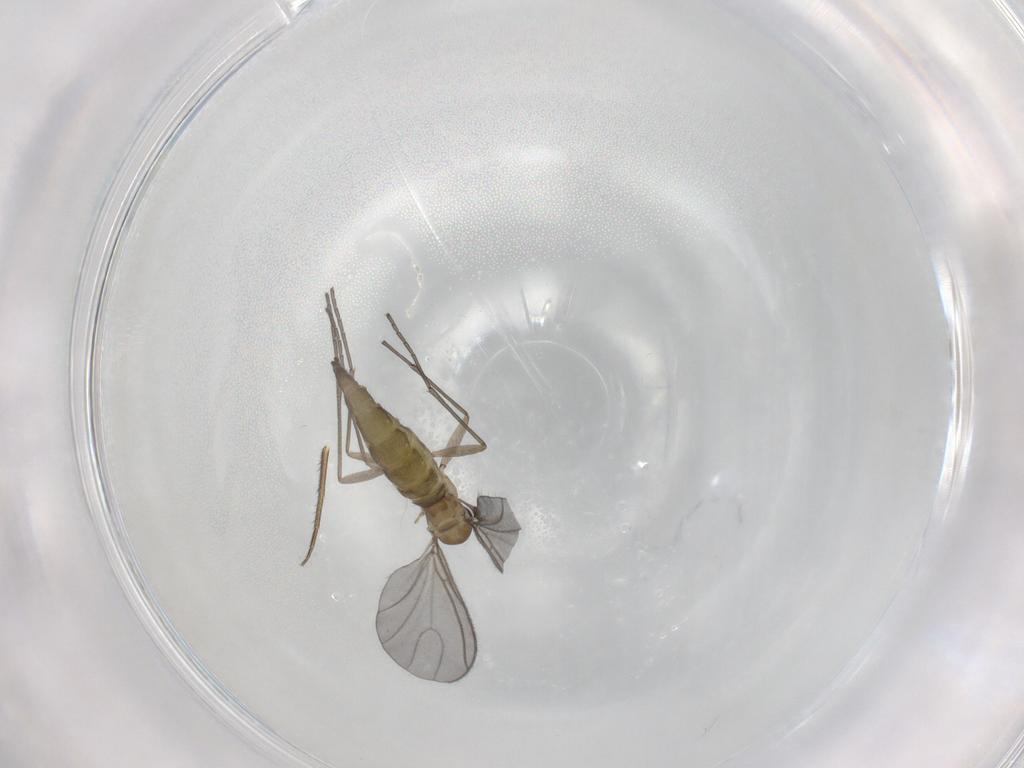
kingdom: Animalia
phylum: Arthropoda
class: Insecta
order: Diptera
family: Sciaridae
